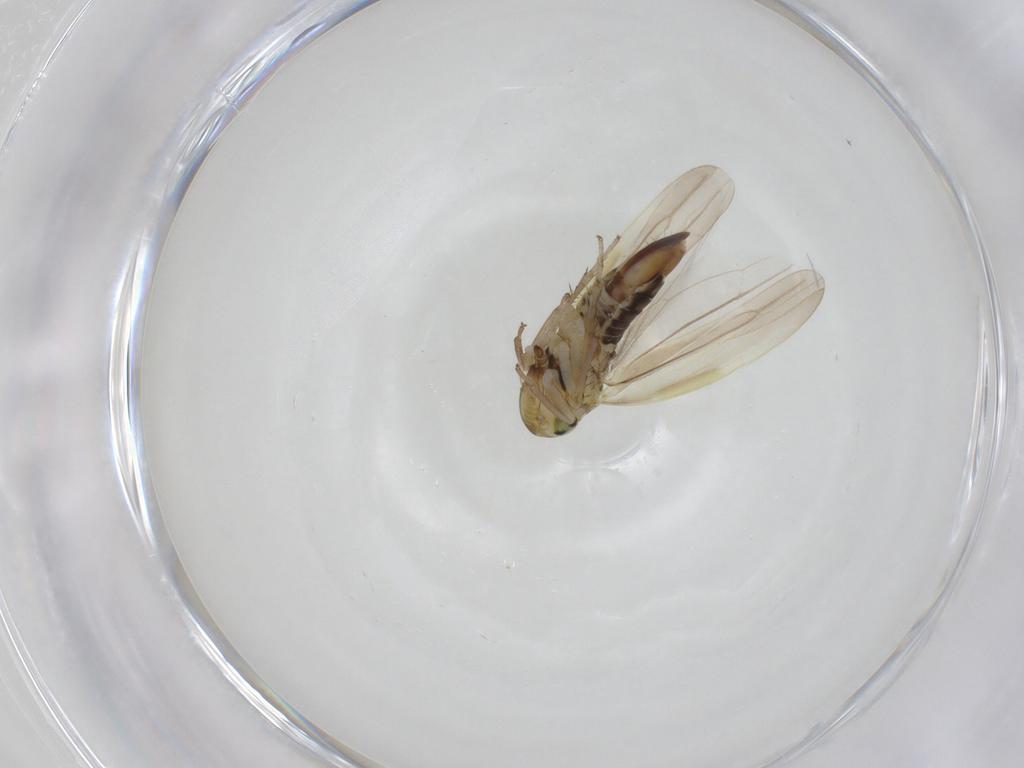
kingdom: Animalia
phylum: Arthropoda
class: Insecta
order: Hemiptera
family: Cicadellidae
